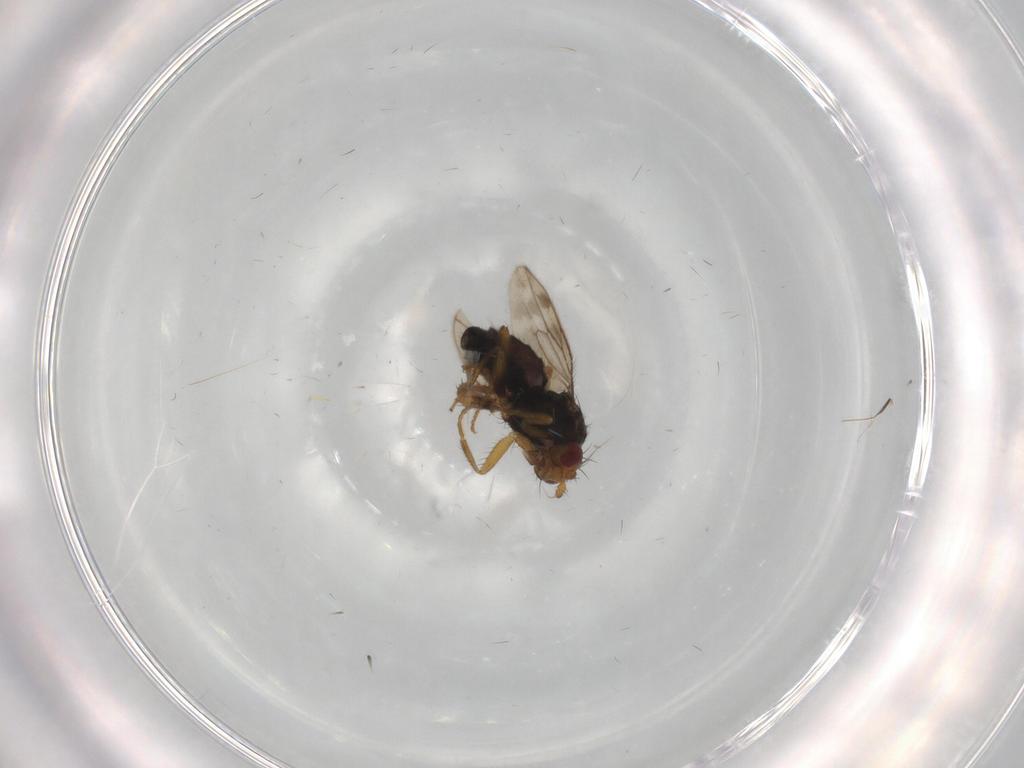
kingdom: Animalia
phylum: Arthropoda
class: Insecta
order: Diptera
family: Sphaeroceridae
